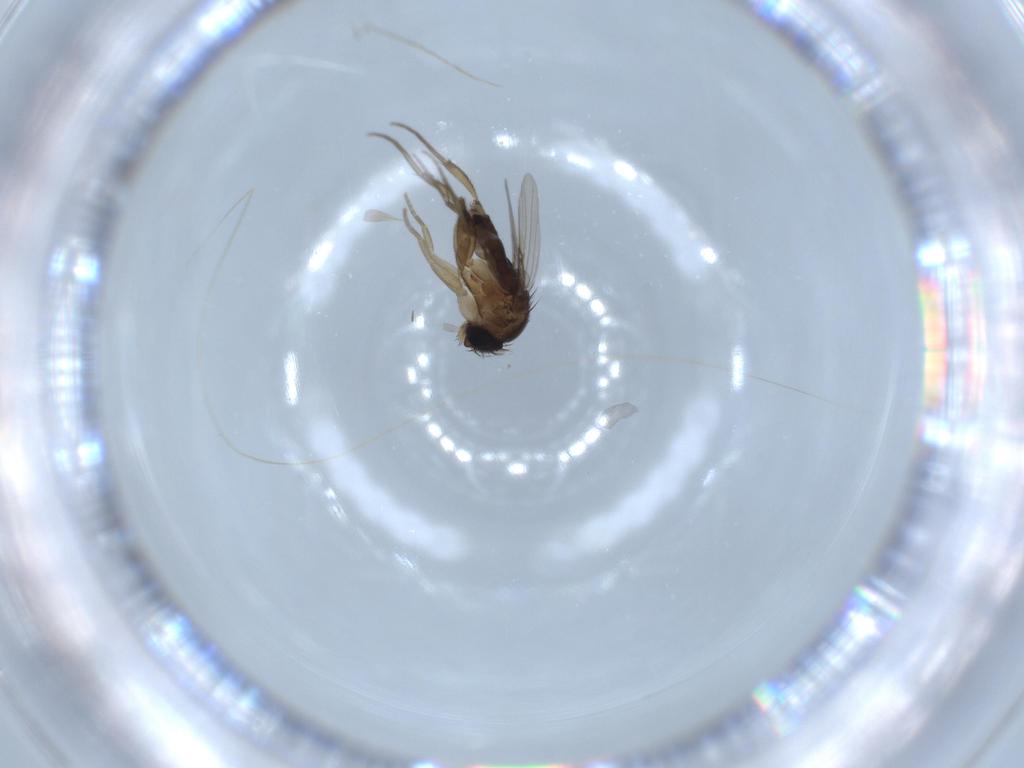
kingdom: Animalia
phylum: Arthropoda
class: Insecta
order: Diptera
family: Phoridae
